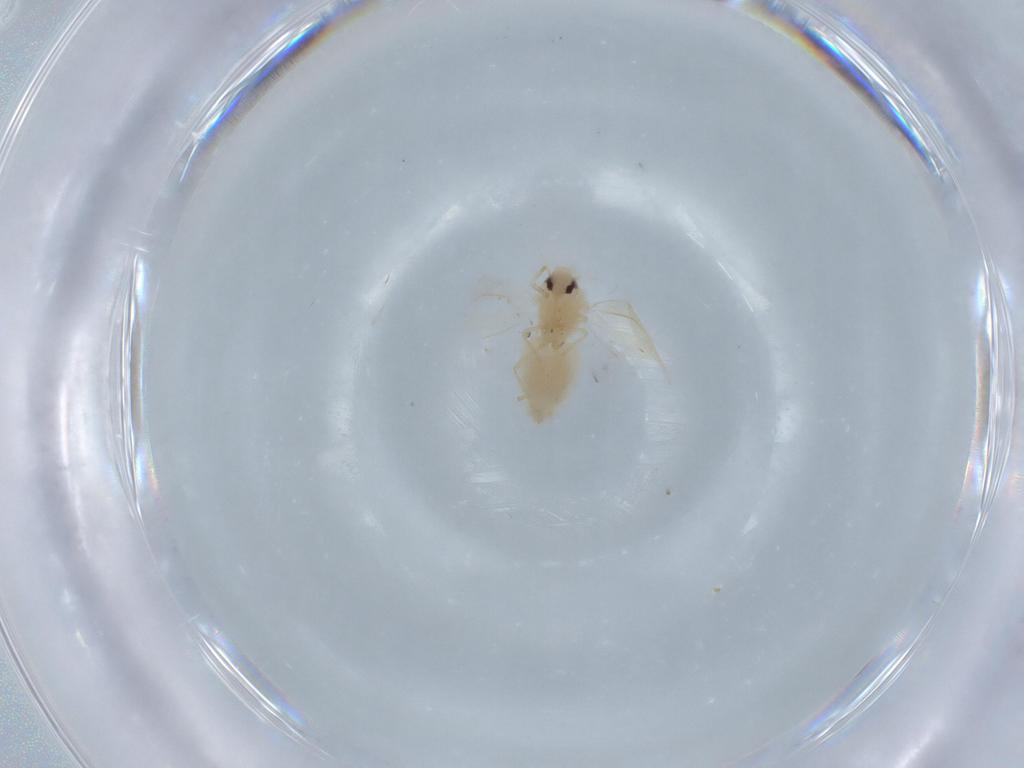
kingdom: Animalia
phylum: Arthropoda
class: Insecta
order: Hemiptera
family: Aleyrodidae
